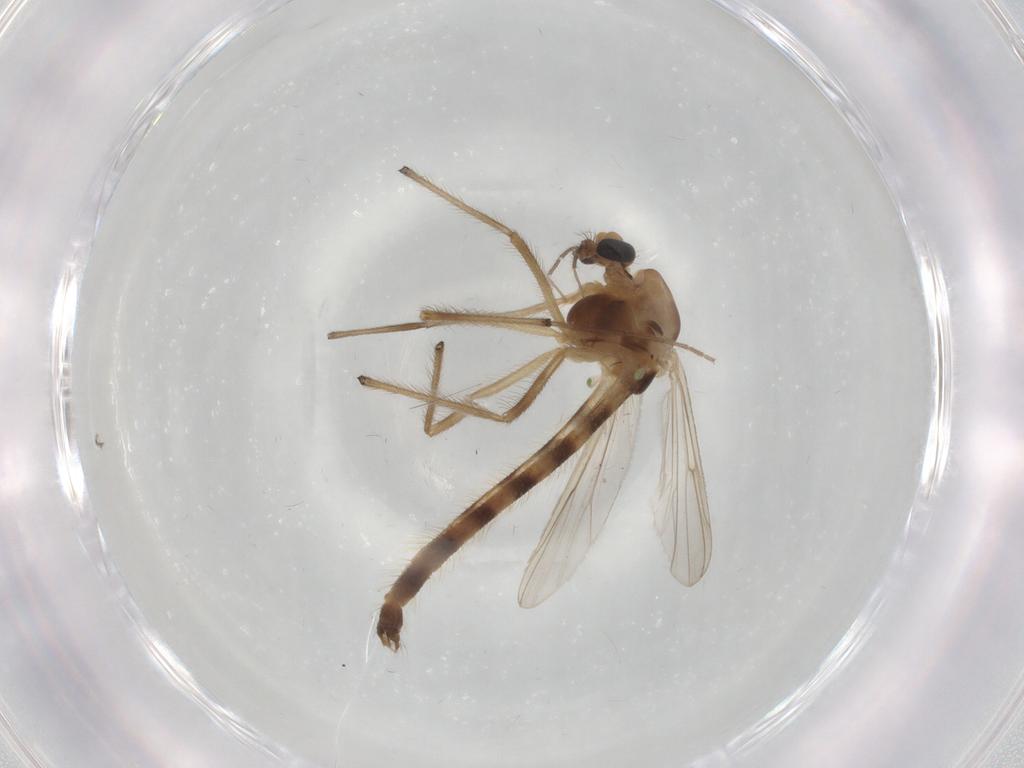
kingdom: Animalia
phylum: Arthropoda
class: Insecta
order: Diptera
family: Chironomidae
